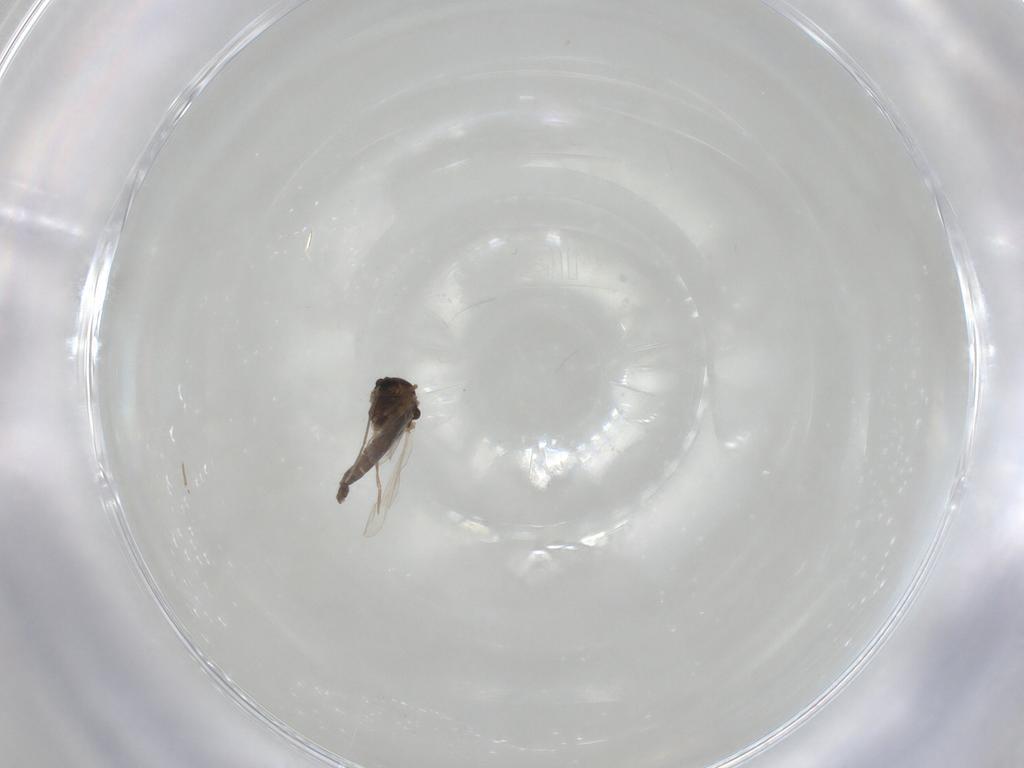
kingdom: Animalia
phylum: Arthropoda
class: Insecta
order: Diptera
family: Chironomidae
